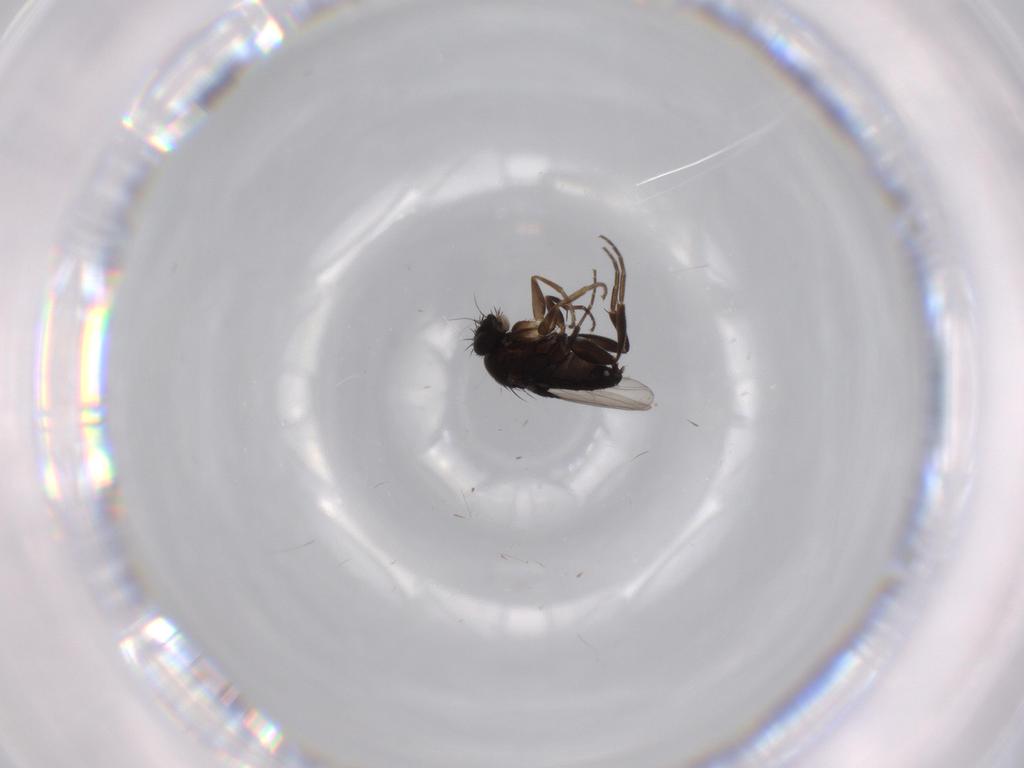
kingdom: Animalia
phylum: Arthropoda
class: Insecta
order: Diptera
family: Phoridae
